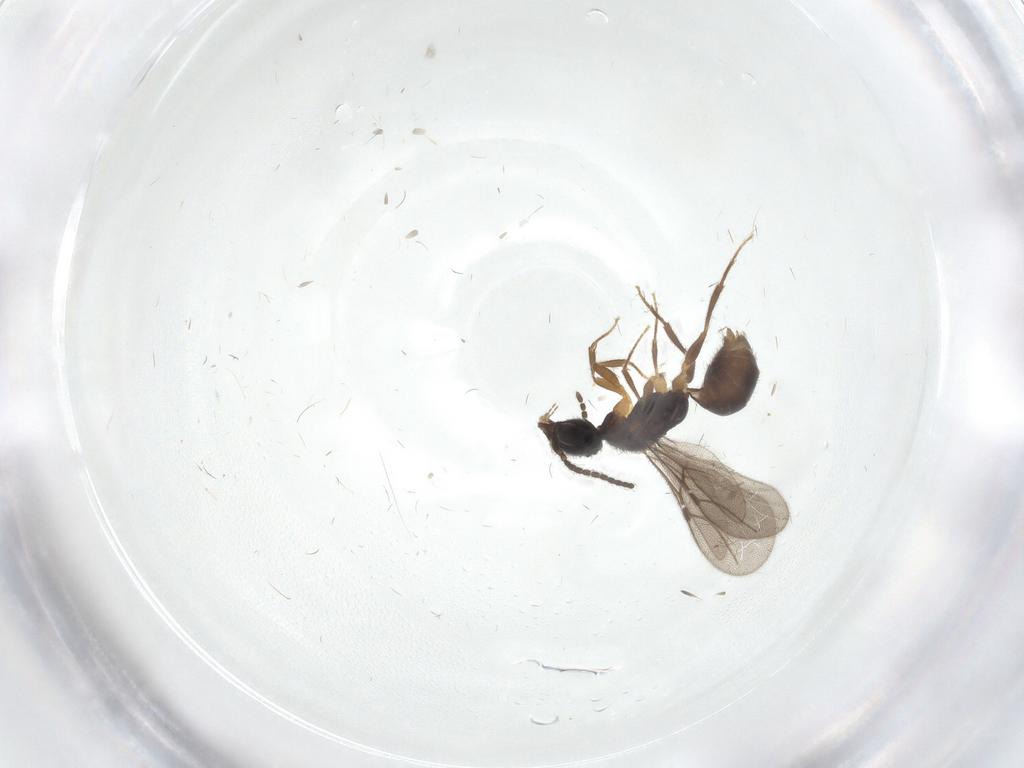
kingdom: Animalia
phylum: Arthropoda
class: Insecta
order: Hymenoptera
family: Bethylidae
